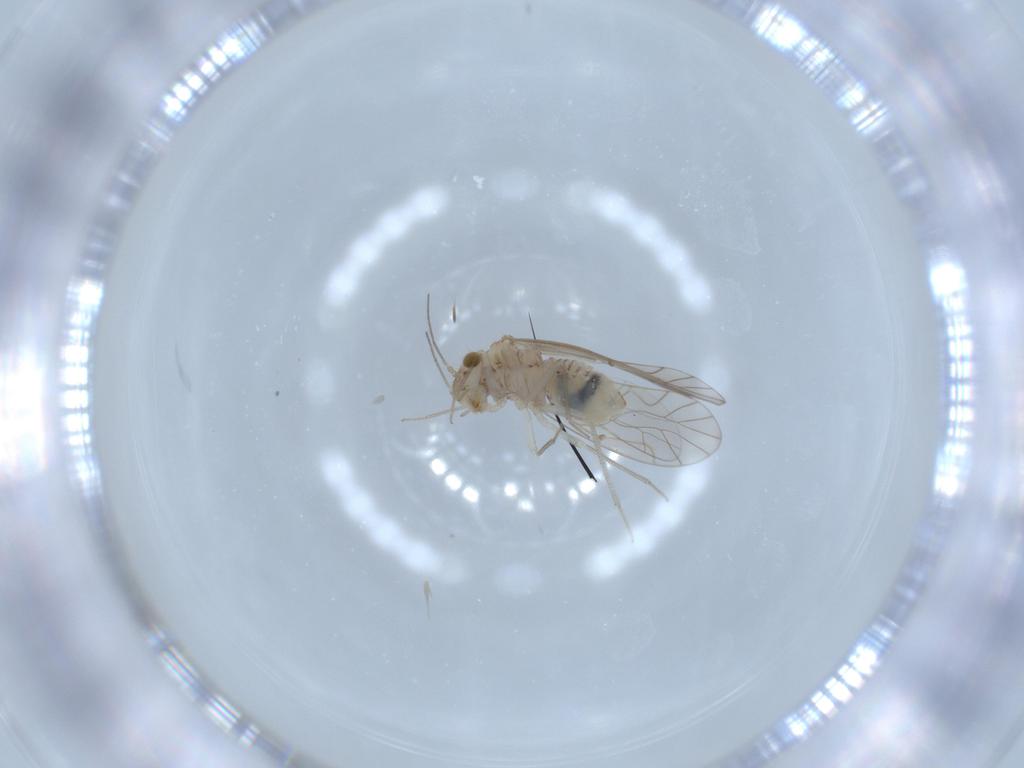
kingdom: Animalia
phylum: Arthropoda
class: Insecta
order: Psocodea
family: Lachesillidae
